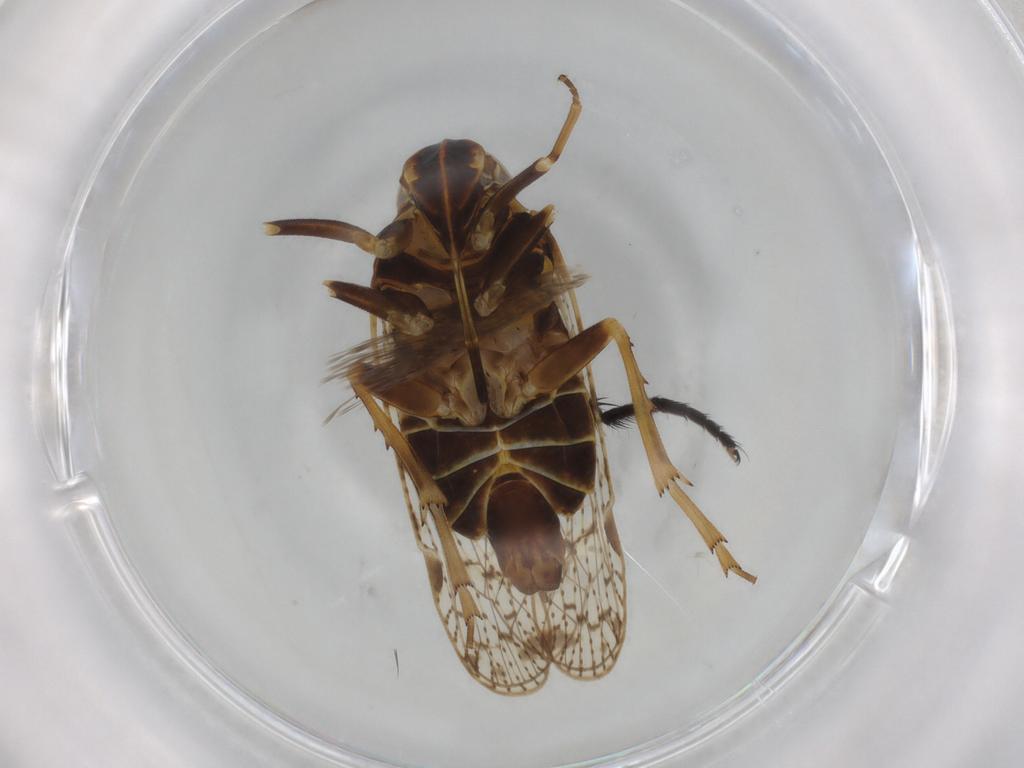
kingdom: Animalia
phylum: Arthropoda
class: Insecta
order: Hemiptera
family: Cixiidae
